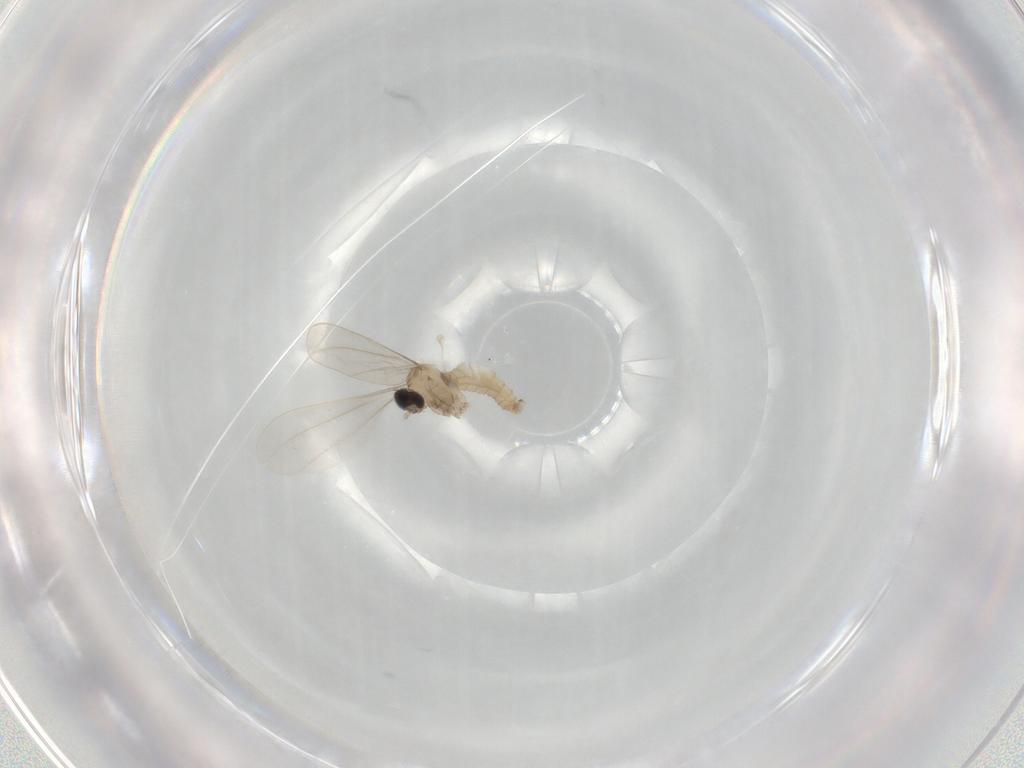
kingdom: Animalia
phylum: Arthropoda
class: Insecta
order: Diptera
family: Cecidomyiidae
